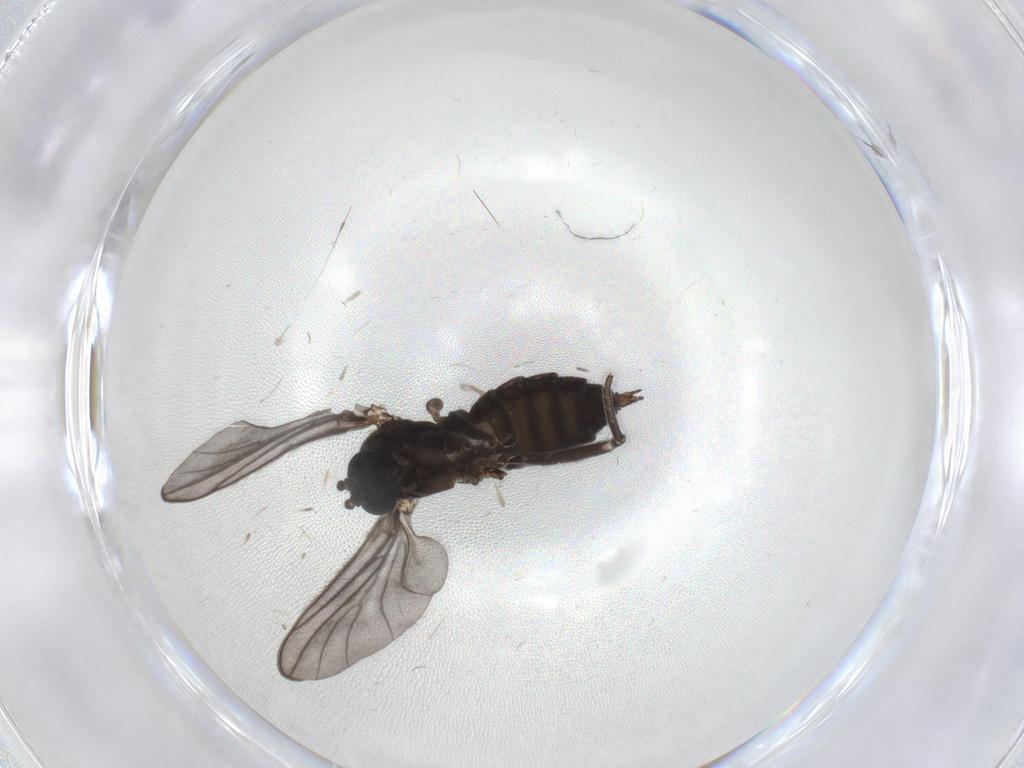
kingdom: Animalia
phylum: Arthropoda
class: Insecta
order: Diptera
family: Sciaridae
